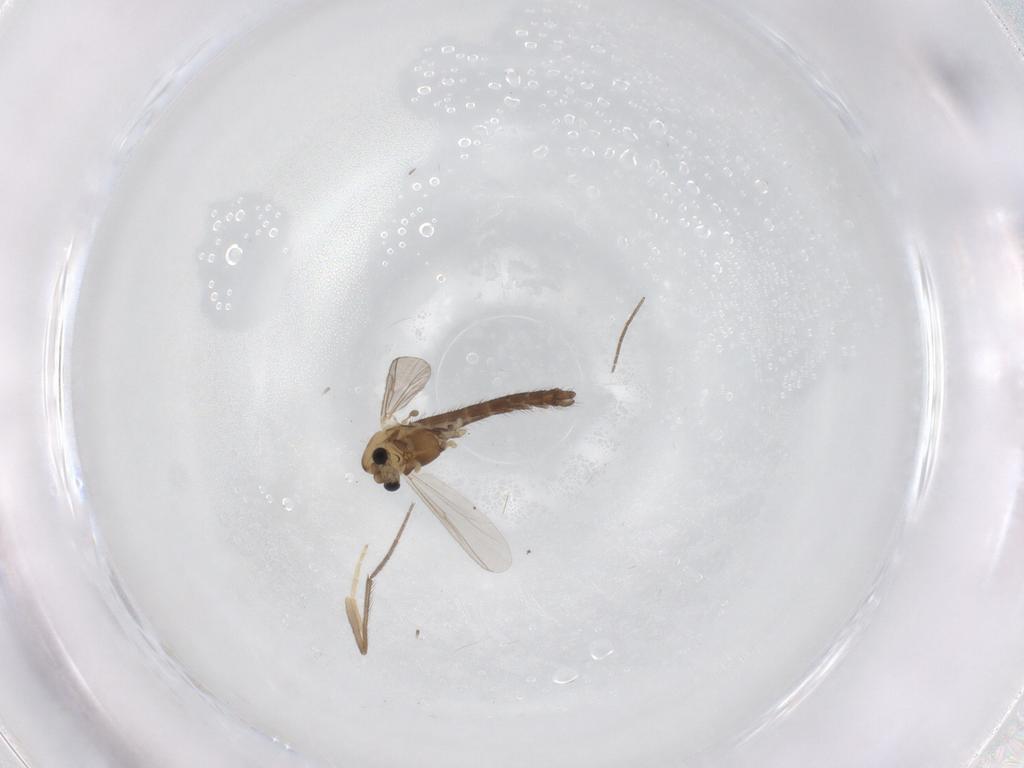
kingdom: Animalia
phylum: Arthropoda
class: Insecta
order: Diptera
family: Chironomidae
